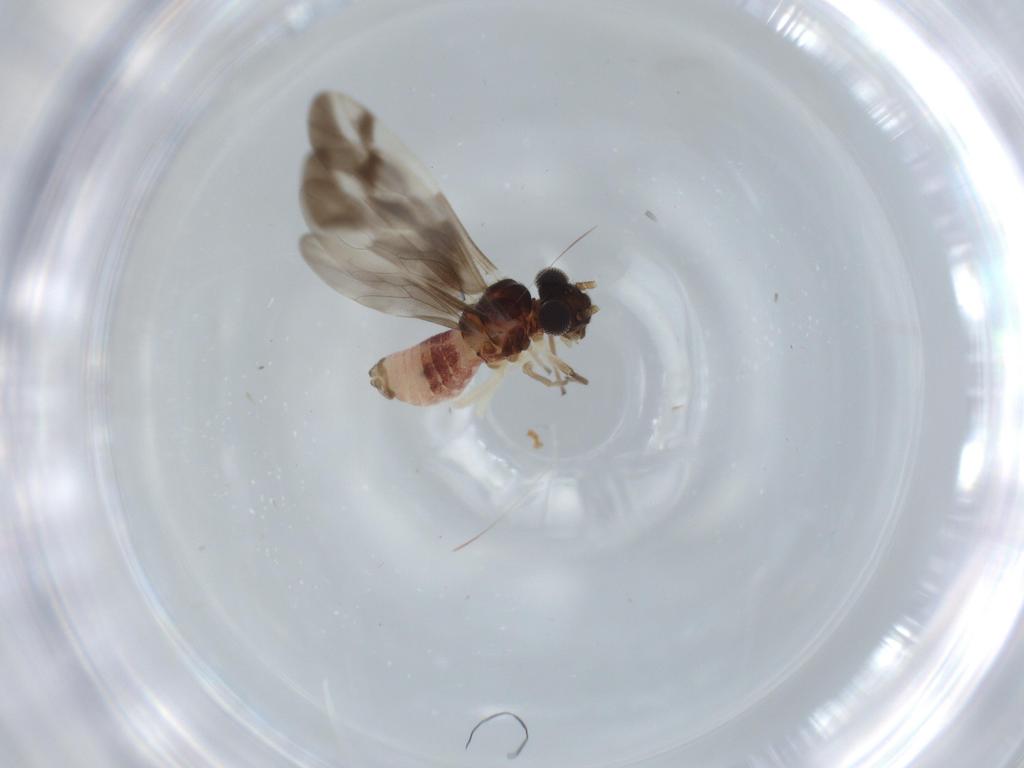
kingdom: Animalia
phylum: Arthropoda
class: Insecta
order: Psocodea
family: Caeciliusidae
